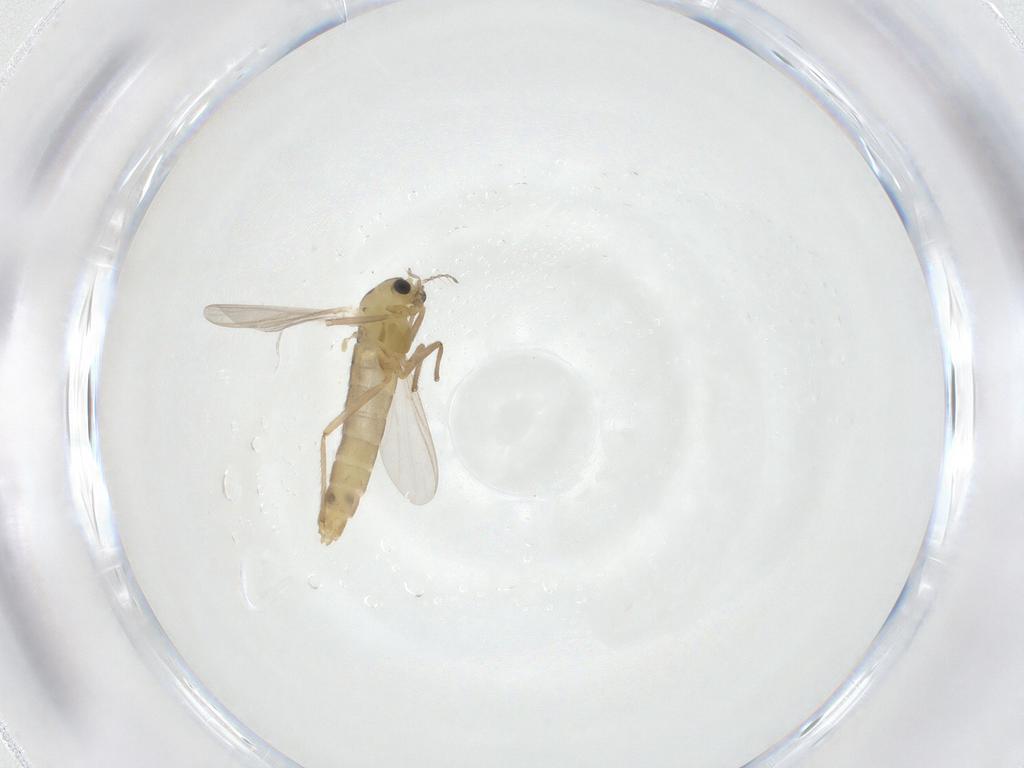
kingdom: Animalia
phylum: Arthropoda
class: Insecta
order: Diptera
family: Chironomidae
